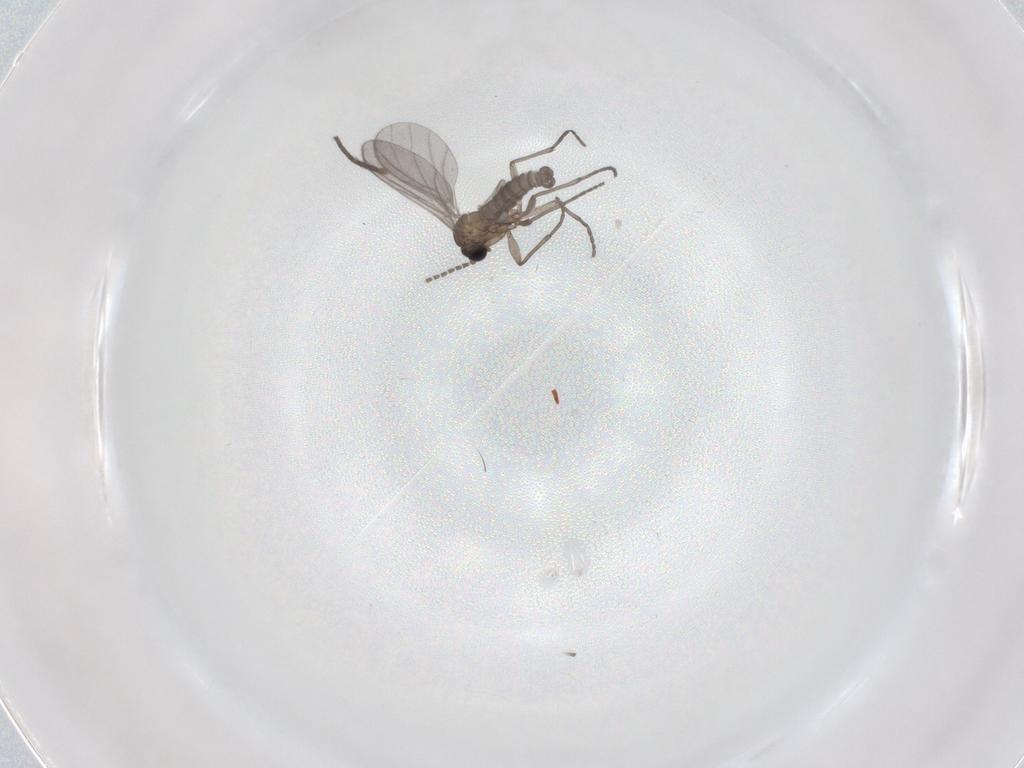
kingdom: Animalia
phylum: Arthropoda
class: Insecta
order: Diptera
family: Sciaridae
